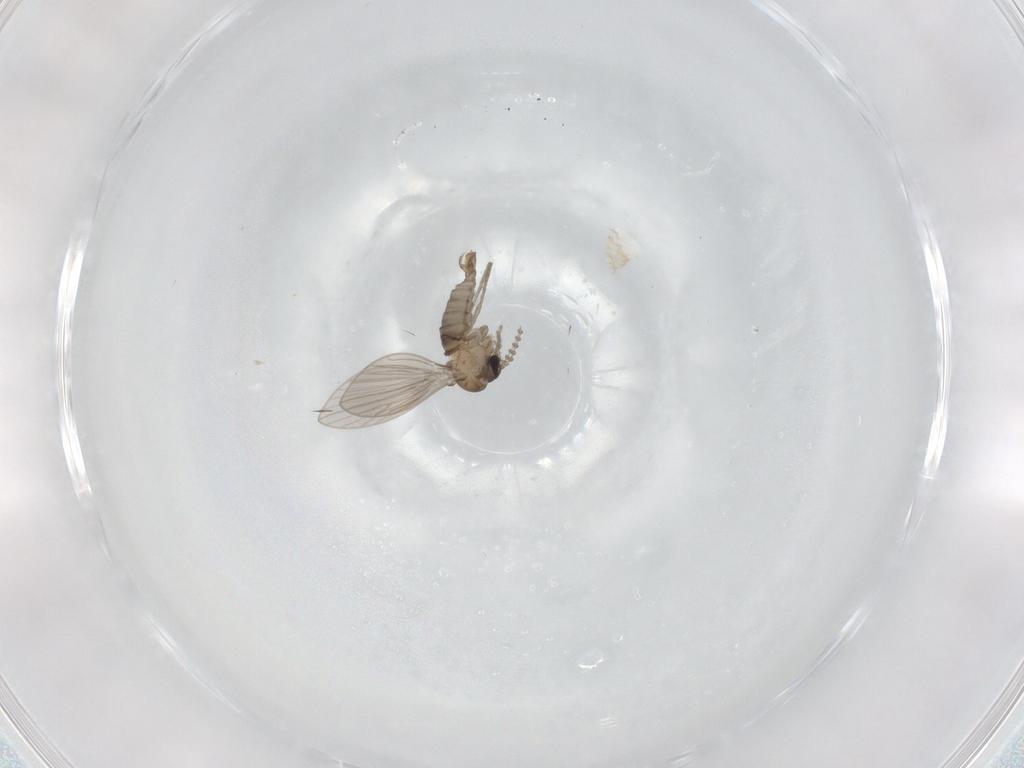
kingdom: Animalia
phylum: Arthropoda
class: Insecta
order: Diptera
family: Psychodidae
